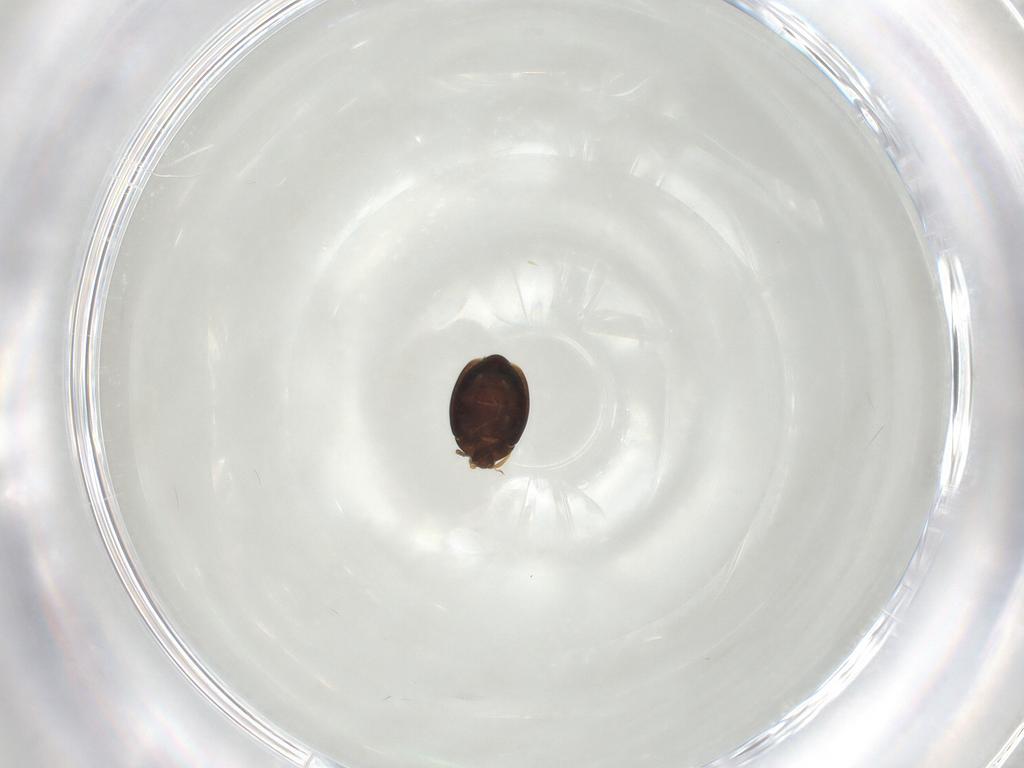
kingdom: Animalia
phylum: Arthropoda
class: Insecta
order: Coleoptera
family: Corylophidae
